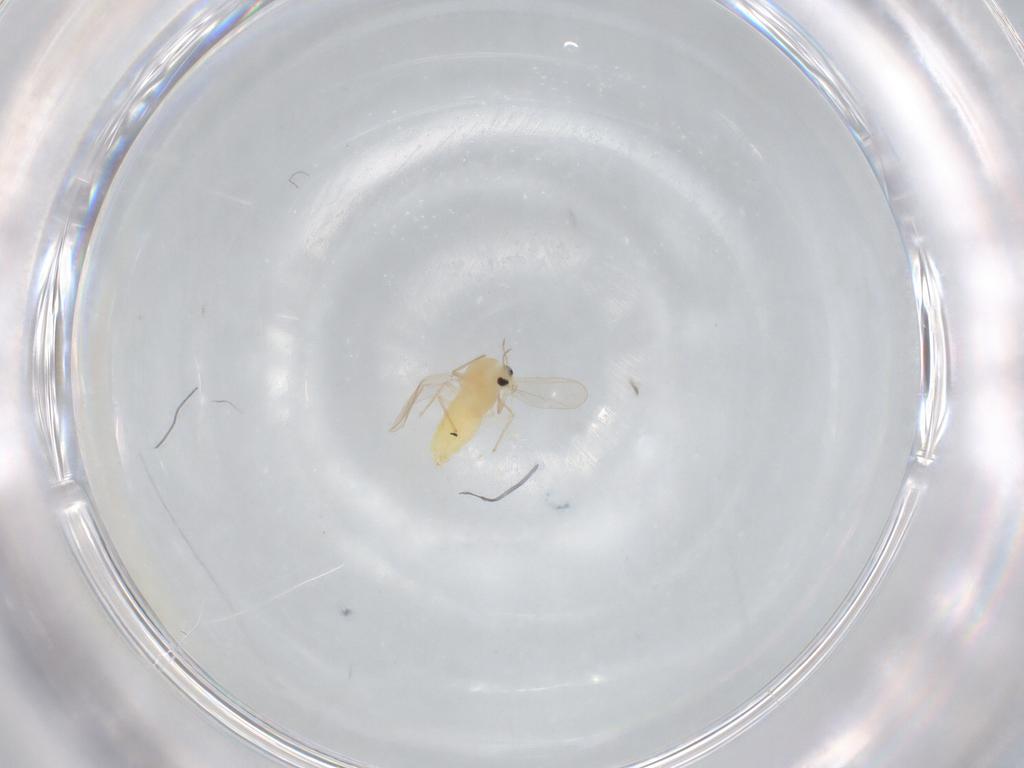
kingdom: Animalia
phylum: Arthropoda
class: Insecta
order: Diptera
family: Chironomidae
